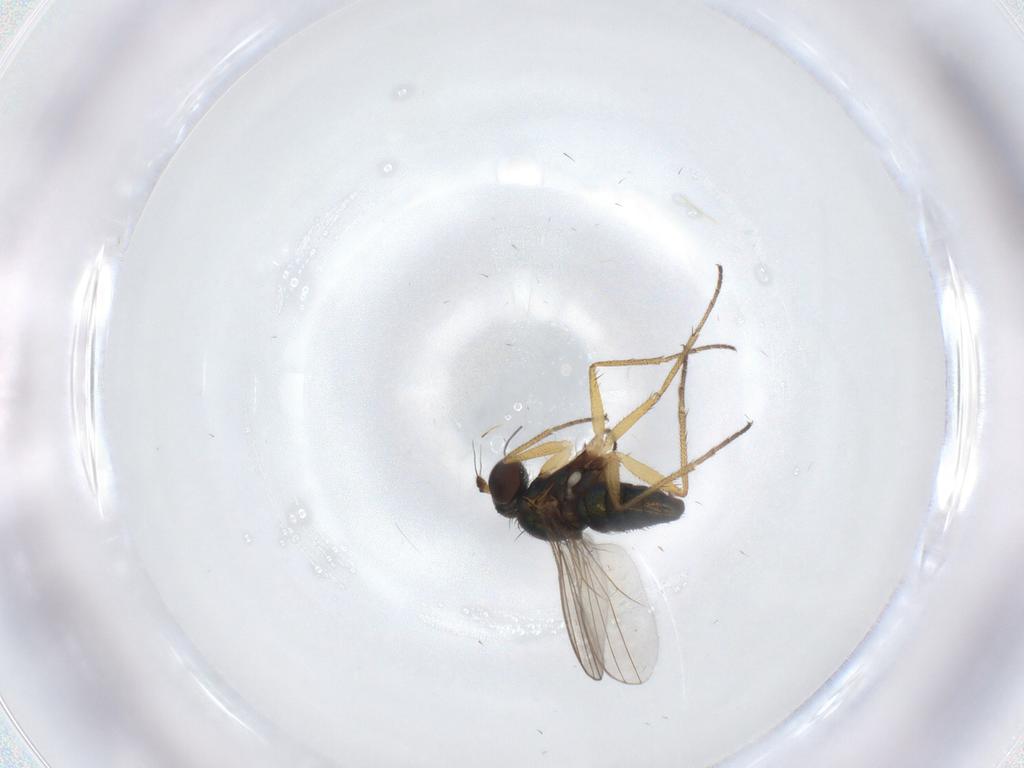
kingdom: Animalia
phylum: Arthropoda
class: Insecta
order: Diptera
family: Dolichopodidae
